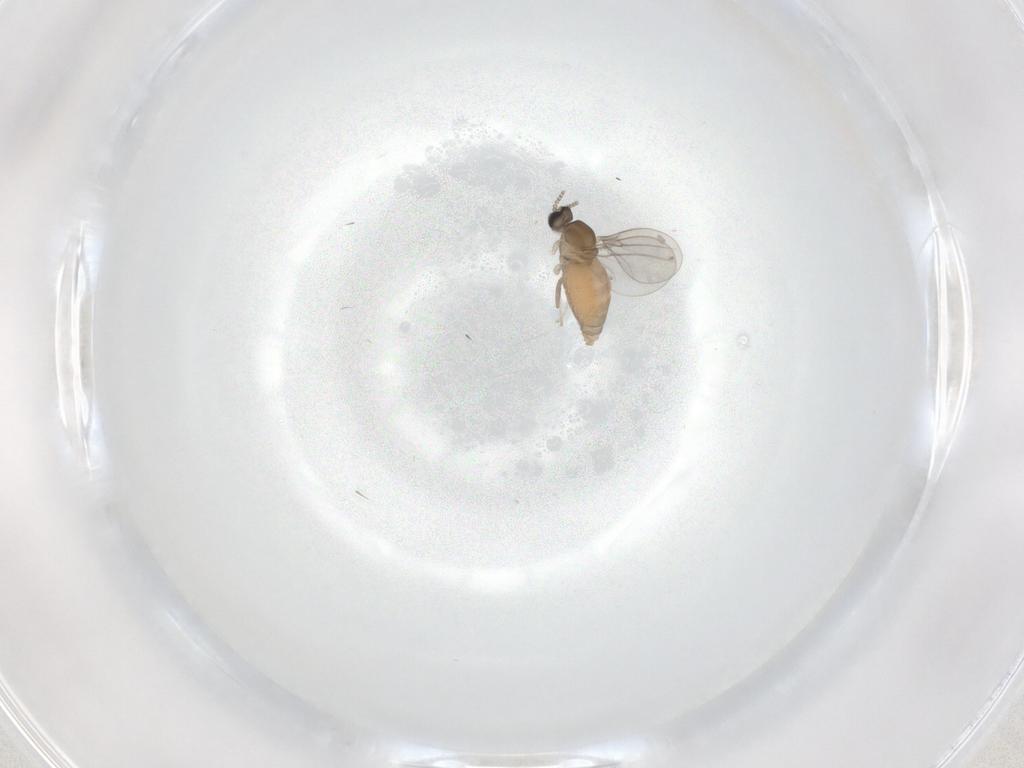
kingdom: Animalia
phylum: Arthropoda
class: Insecta
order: Diptera
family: Cecidomyiidae
